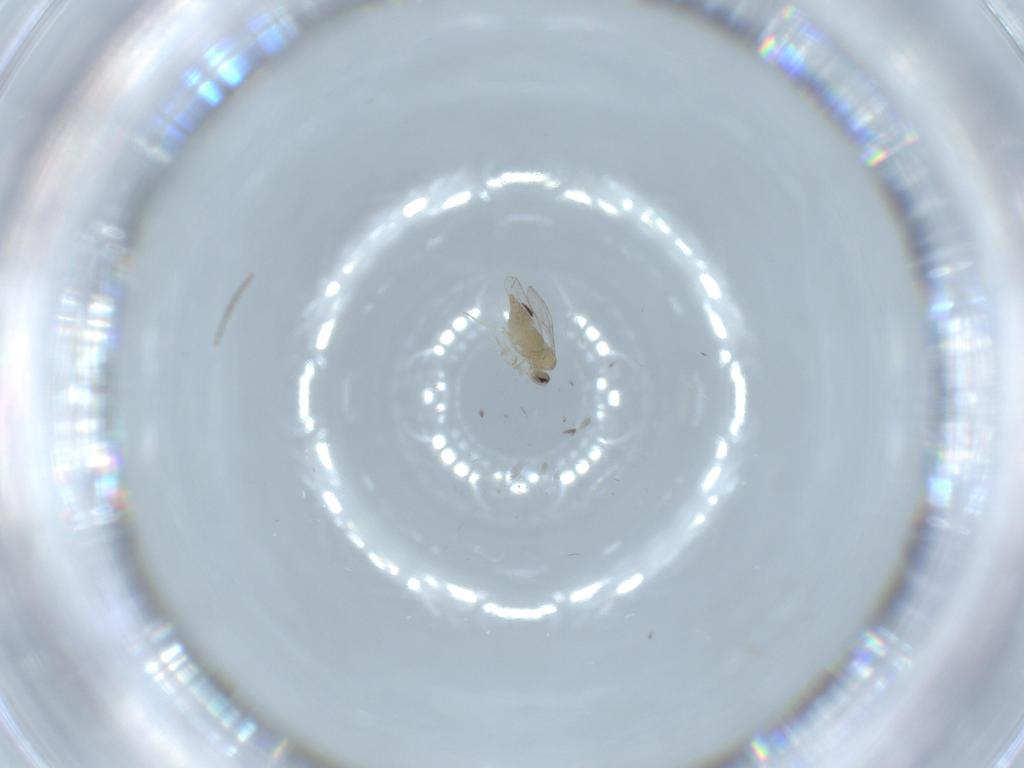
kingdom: Animalia
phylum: Arthropoda
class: Insecta
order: Diptera
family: Cecidomyiidae
